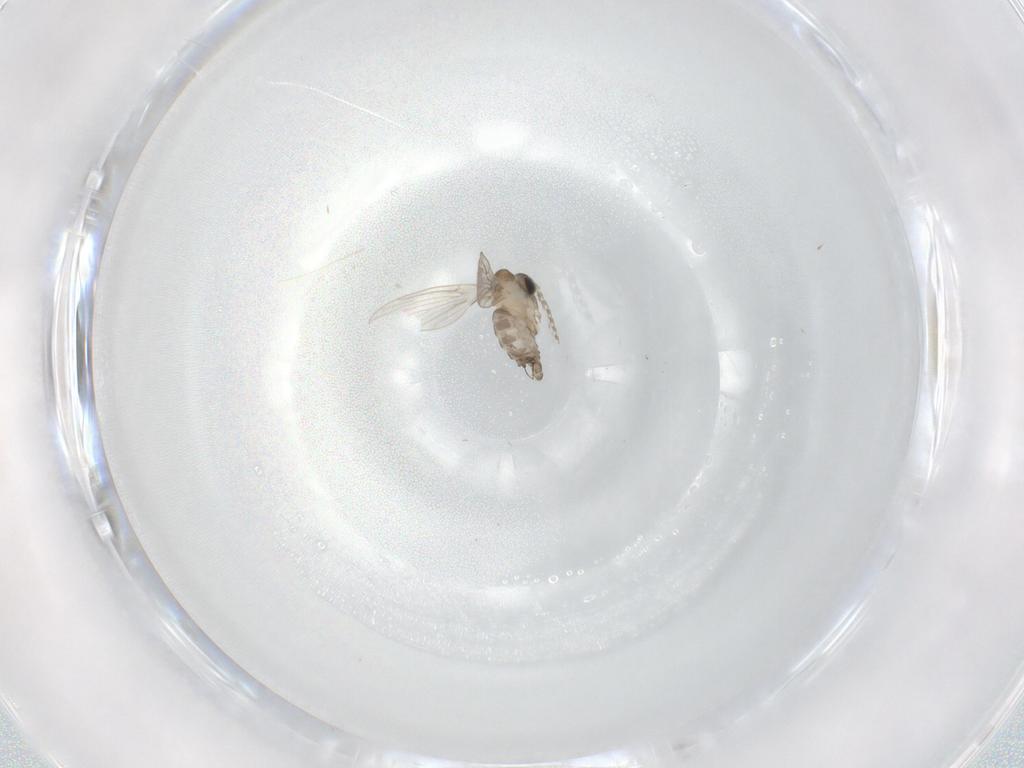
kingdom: Animalia
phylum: Arthropoda
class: Insecta
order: Diptera
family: Psychodidae
